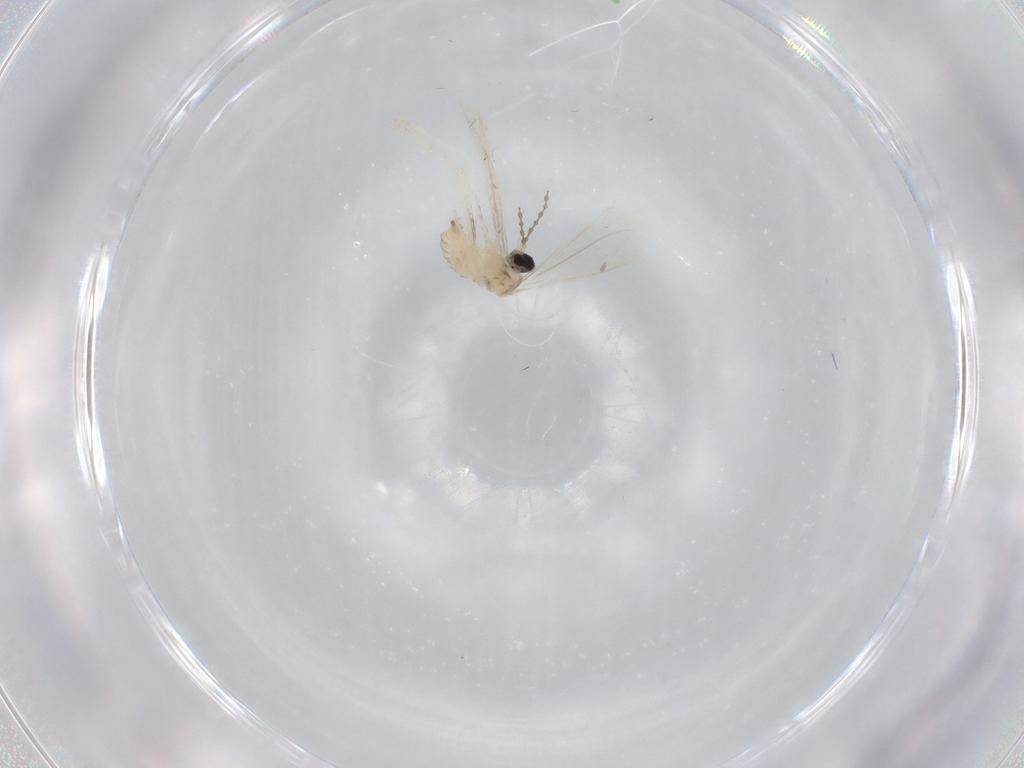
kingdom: Animalia
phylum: Arthropoda
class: Insecta
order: Diptera
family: Cecidomyiidae
